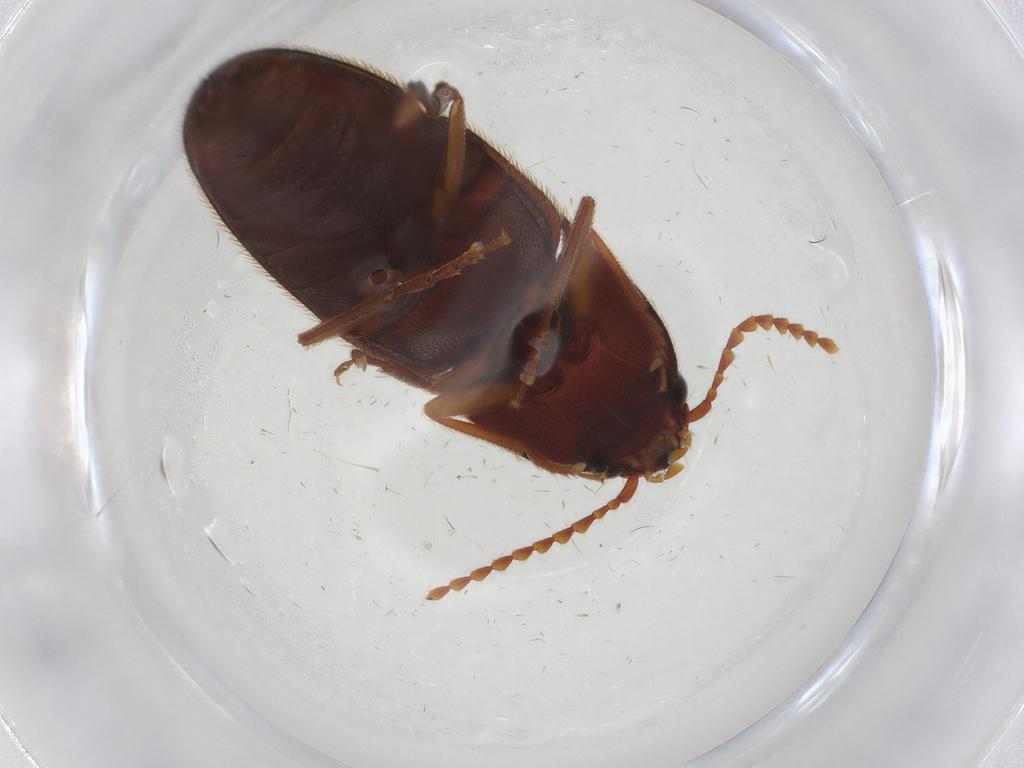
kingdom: Animalia
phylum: Arthropoda
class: Insecta
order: Coleoptera
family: Elateridae
